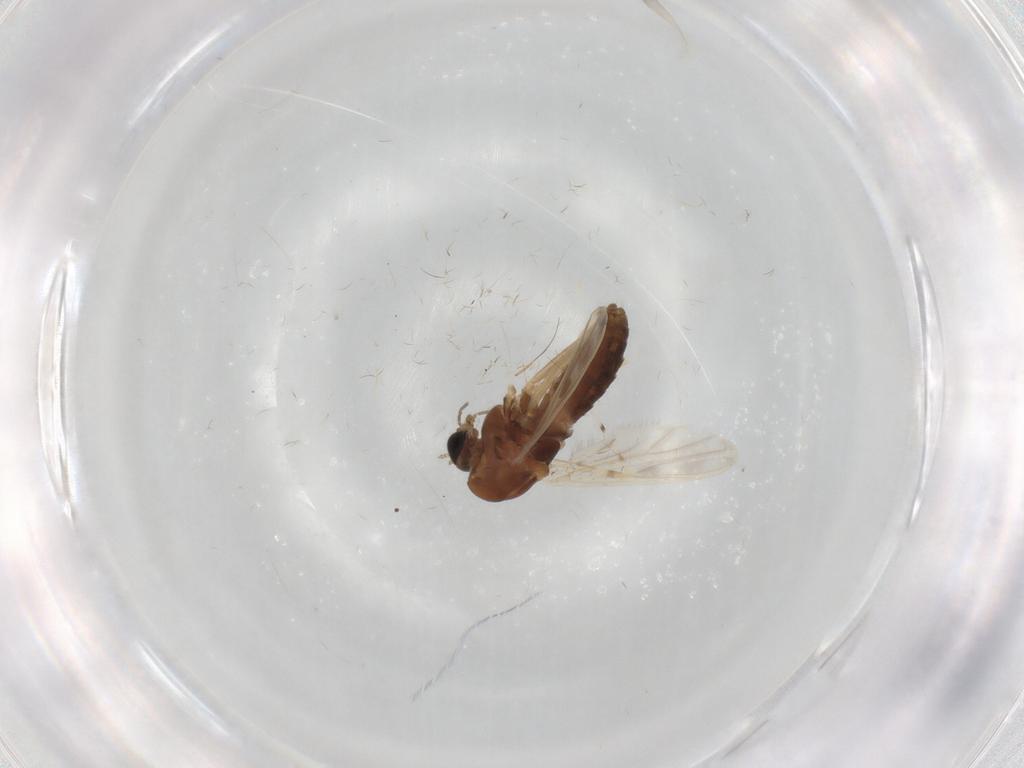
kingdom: Animalia
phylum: Arthropoda
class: Insecta
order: Diptera
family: Chironomidae
